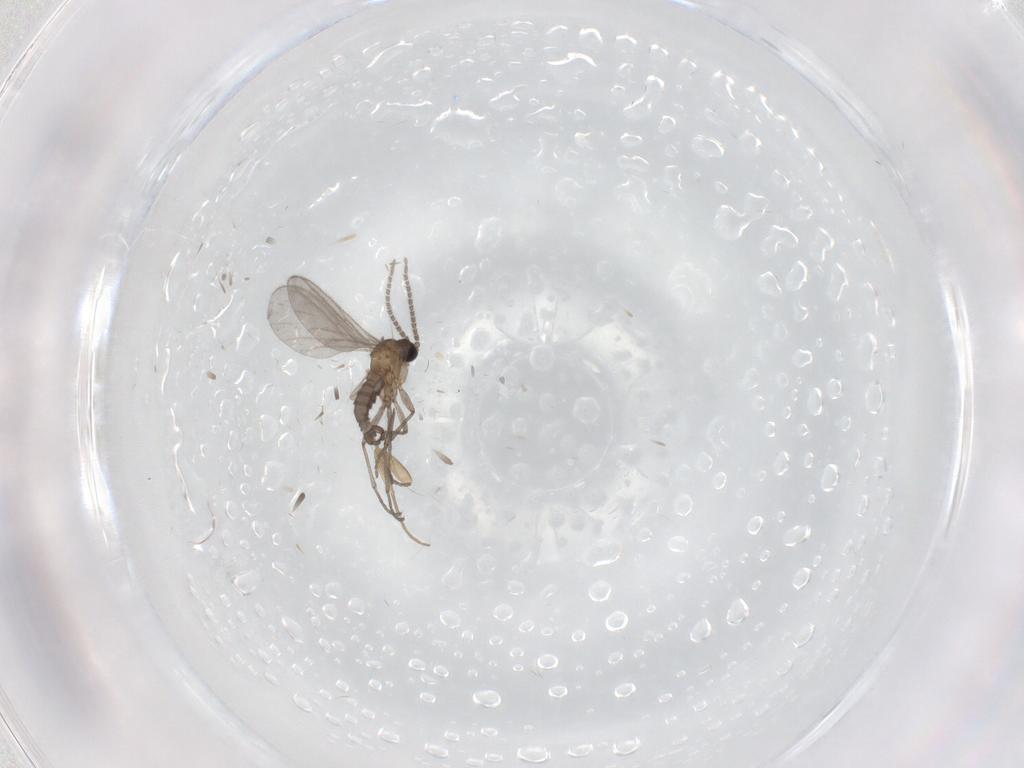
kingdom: Animalia
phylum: Arthropoda
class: Insecta
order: Diptera
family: Sciaridae
